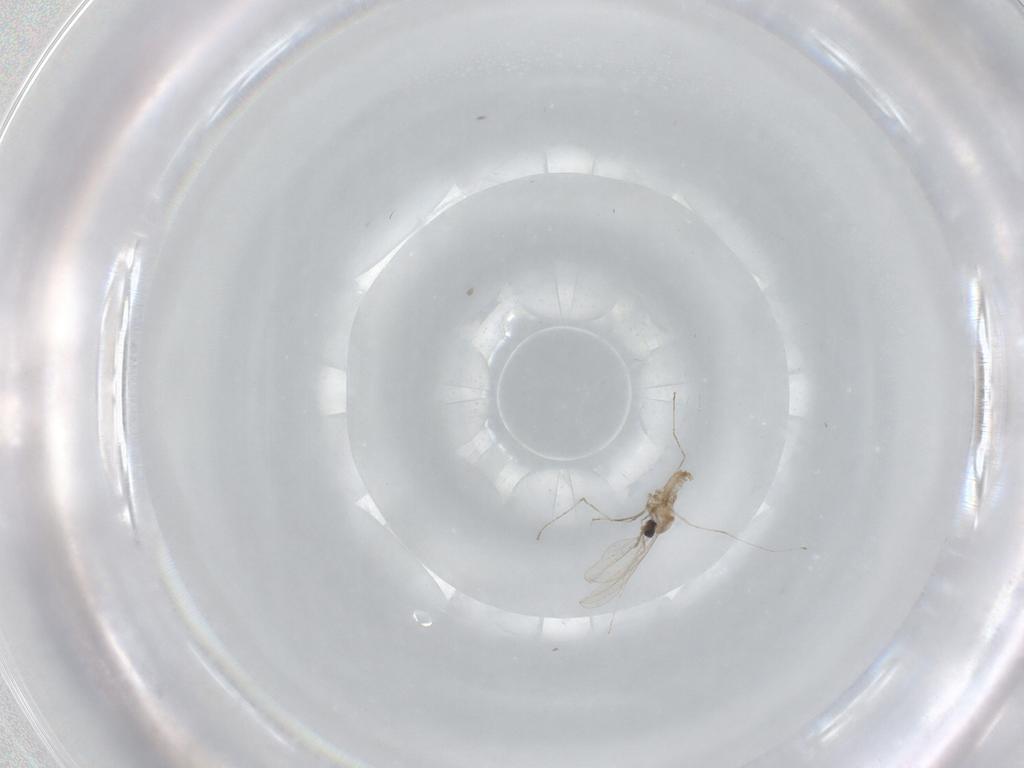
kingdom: Animalia
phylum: Arthropoda
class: Insecta
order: Diptera
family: Cecidomyiidae
